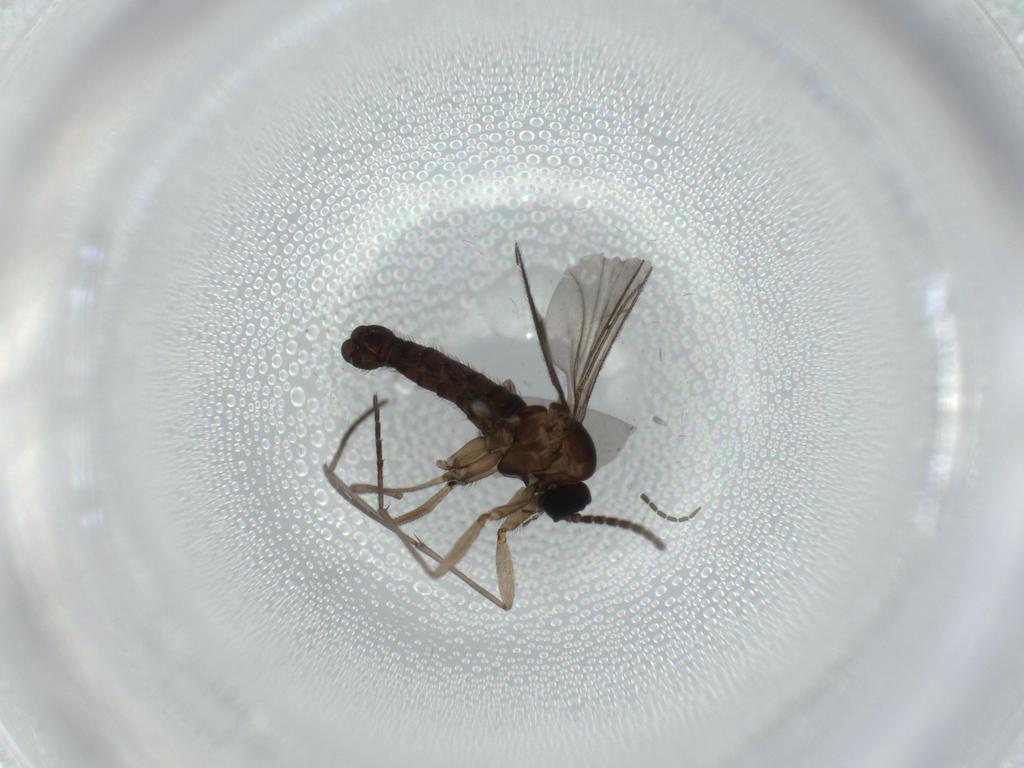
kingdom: Animalia
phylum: Arthropoda
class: Insecta
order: Diptera
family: Sciaridae
